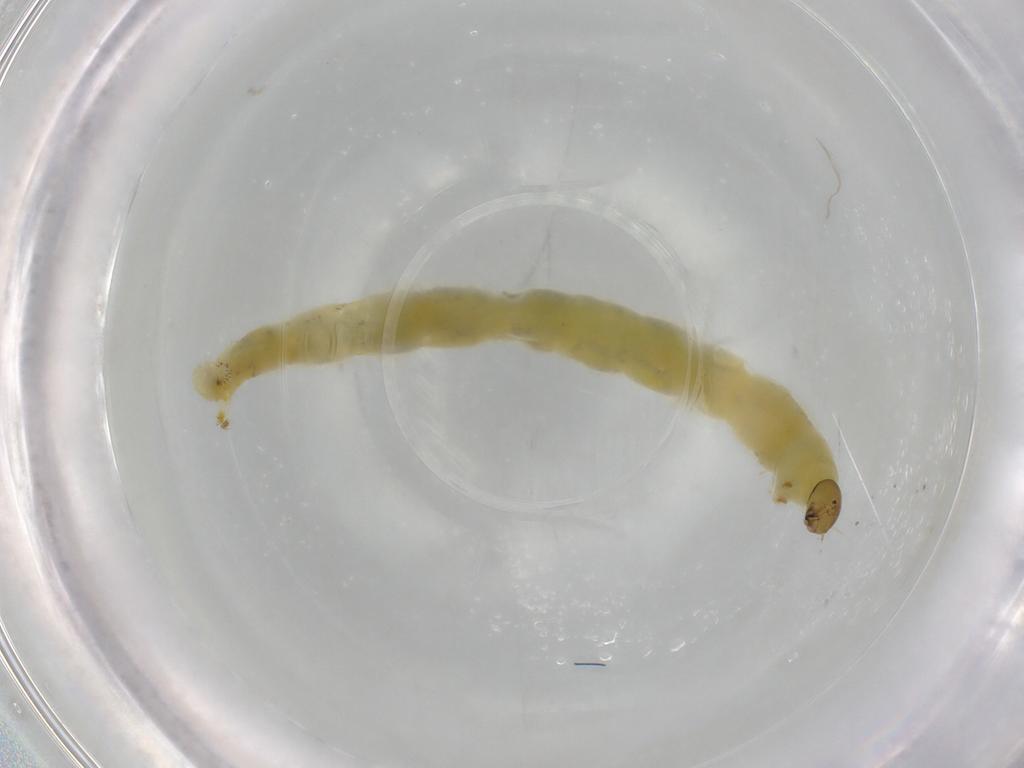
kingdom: Animalia
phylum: Arthropoda
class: Insecta
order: Diptera
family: Chironomidae
